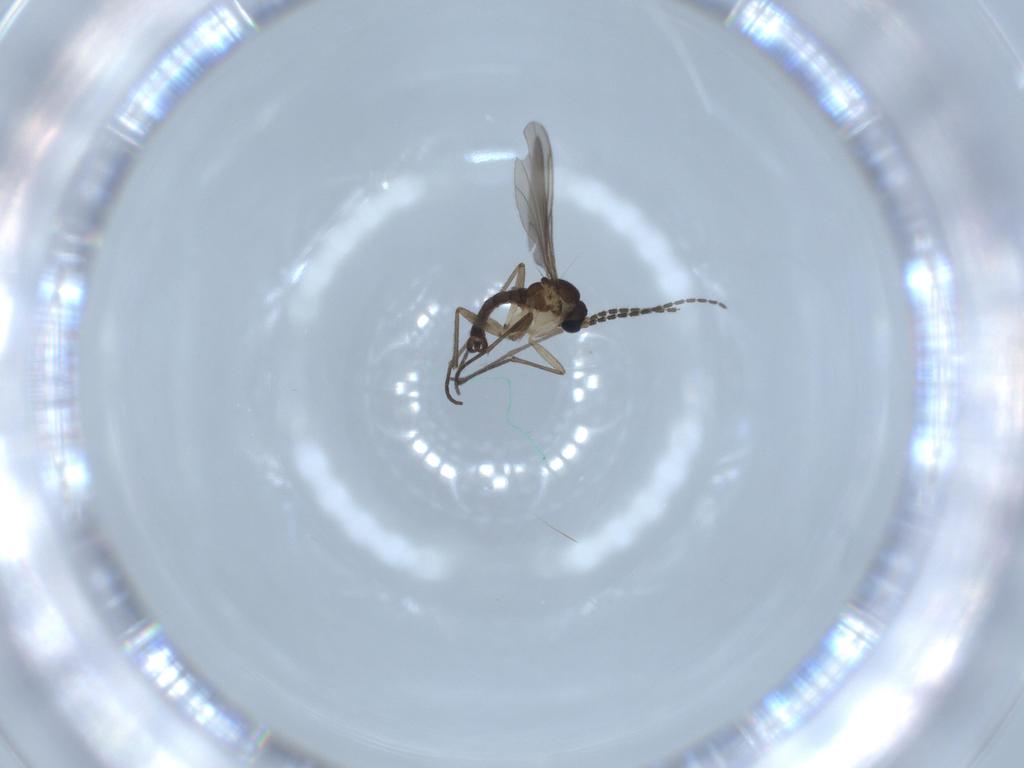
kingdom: Animalia
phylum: Arthropoda
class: Insecta
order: Diptera
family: Sciaridae
